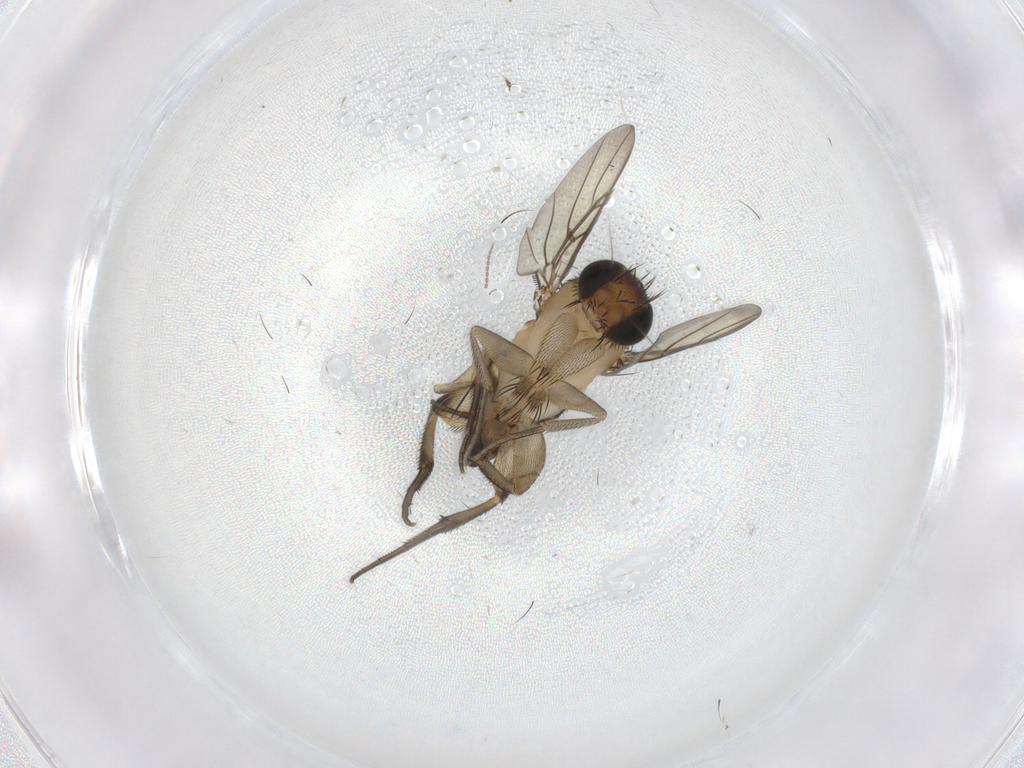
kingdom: Animalia
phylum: Arthropoda
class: Insecta
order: Diptera
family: Phoridae
